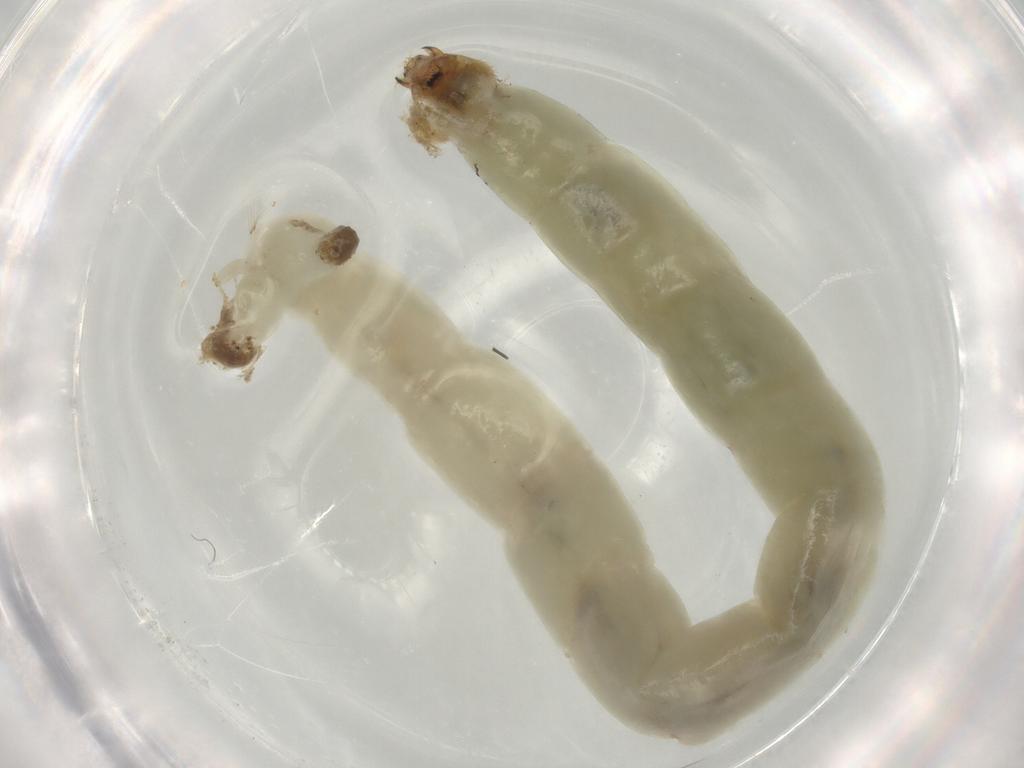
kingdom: Animalia
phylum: Arthropoda
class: Insecta
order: Diptera
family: Chironomidae
